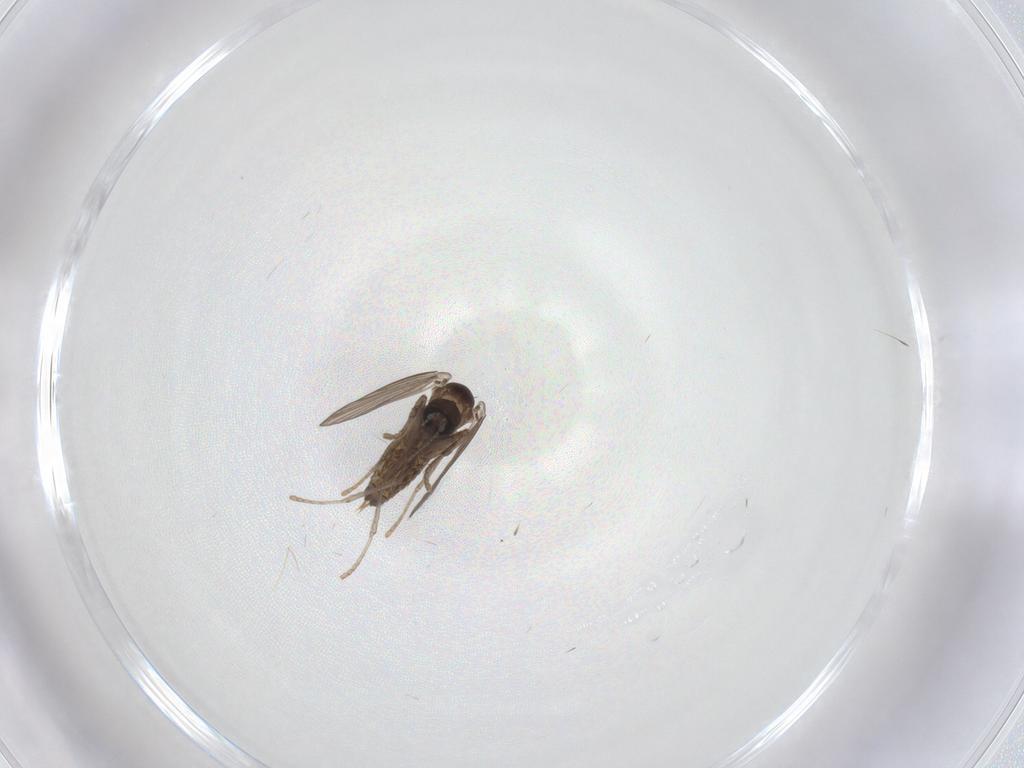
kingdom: Animalia
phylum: Arthropoda
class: Insecta
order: Diptera
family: Psychodidae
